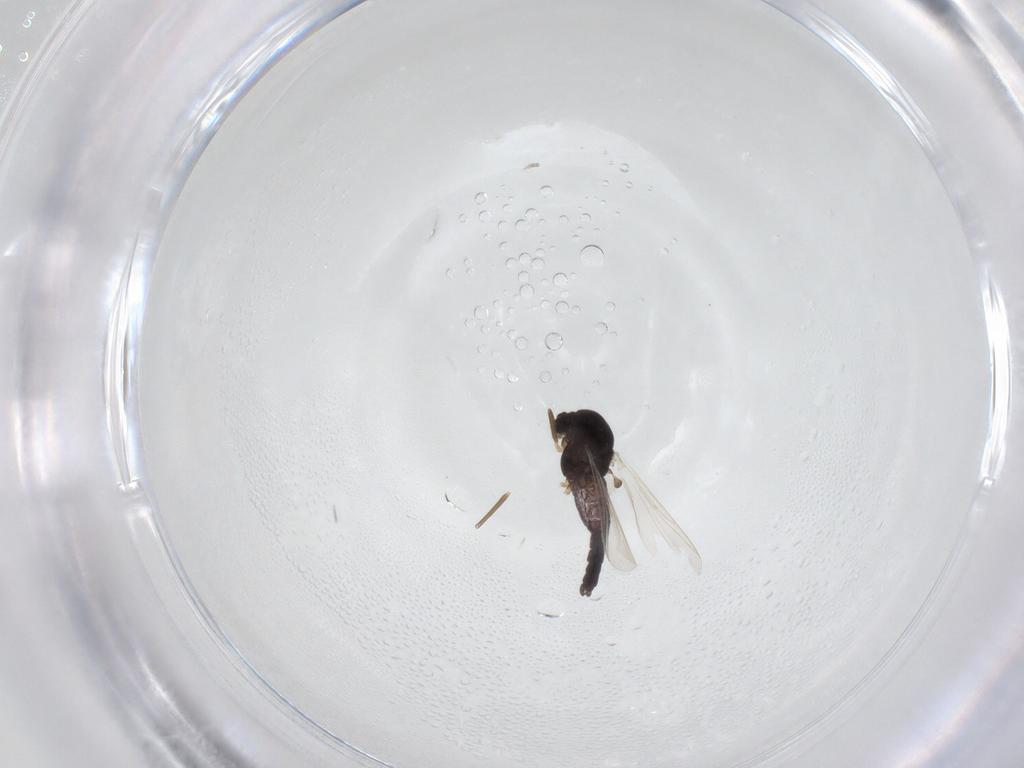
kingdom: Animalia
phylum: Arthropoda
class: Insecta
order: Diptera
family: Chironomidae
